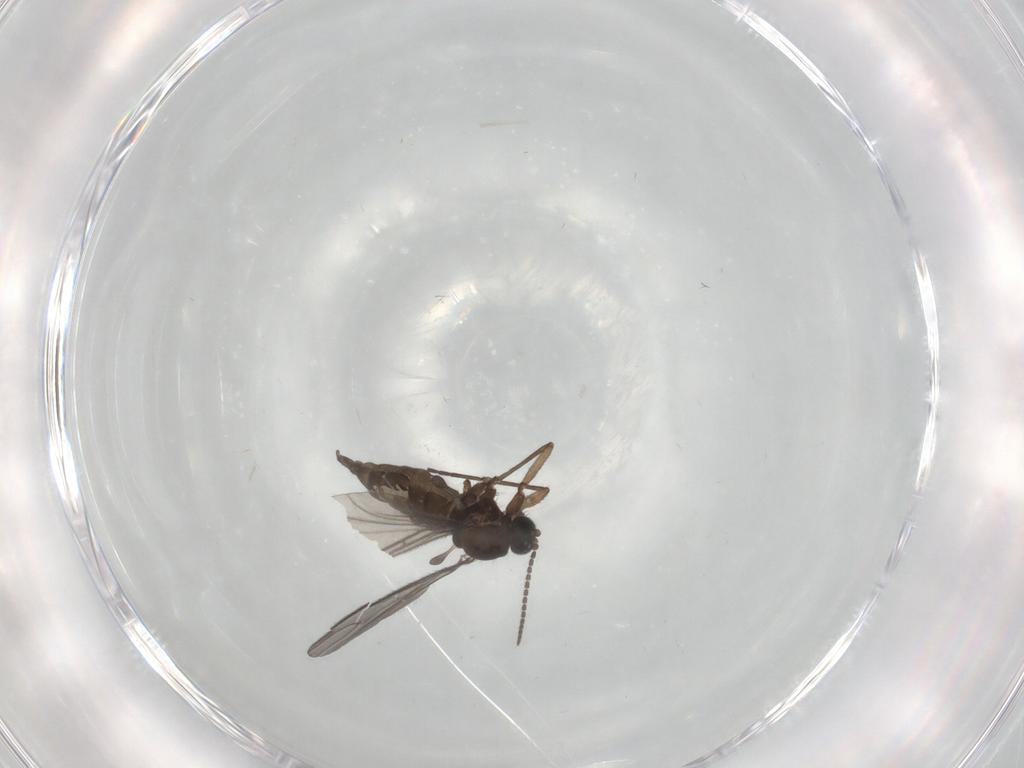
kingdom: Animalia
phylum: Arthropoda
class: Insecta
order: Diptera
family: Sciaridae
